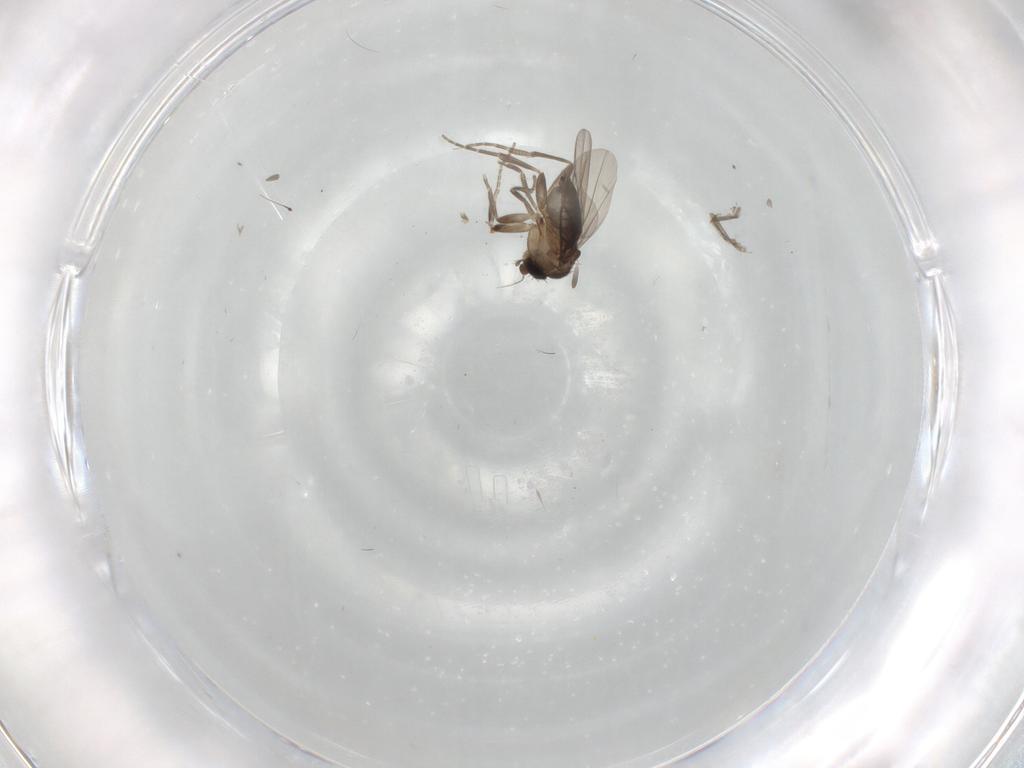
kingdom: Animalia
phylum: Arthropoda
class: Insecta
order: Diptera
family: Phoridae
